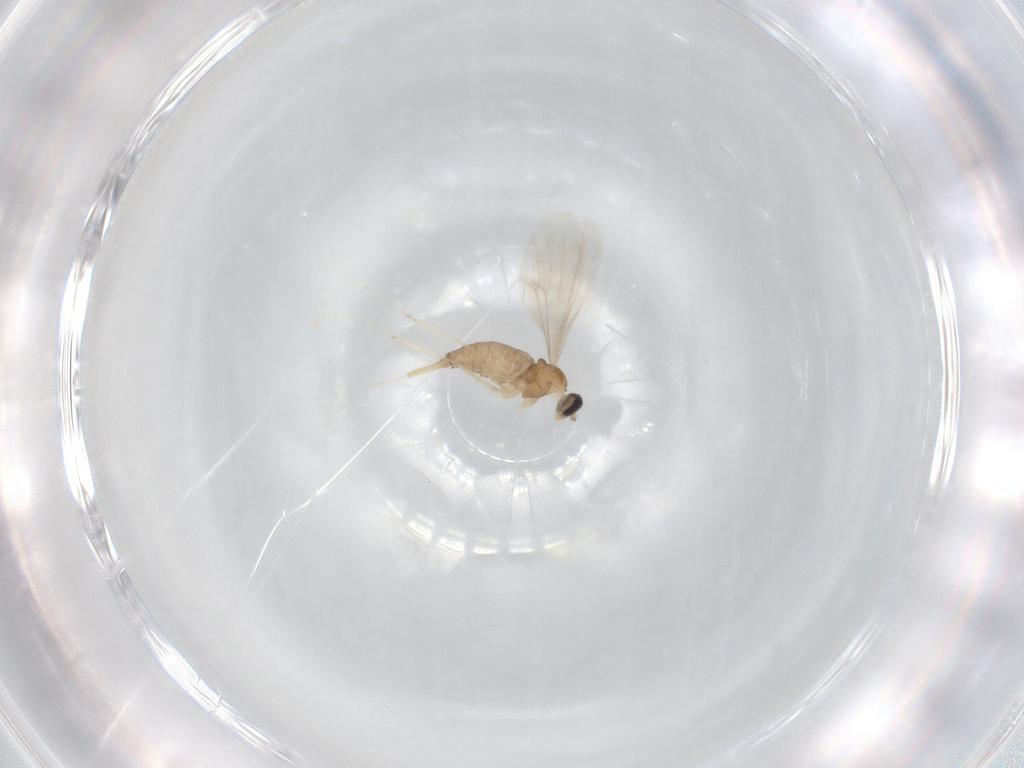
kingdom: Animalia
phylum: Arthropoda
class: Insecta
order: Diptera
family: Cecidomyiidae
